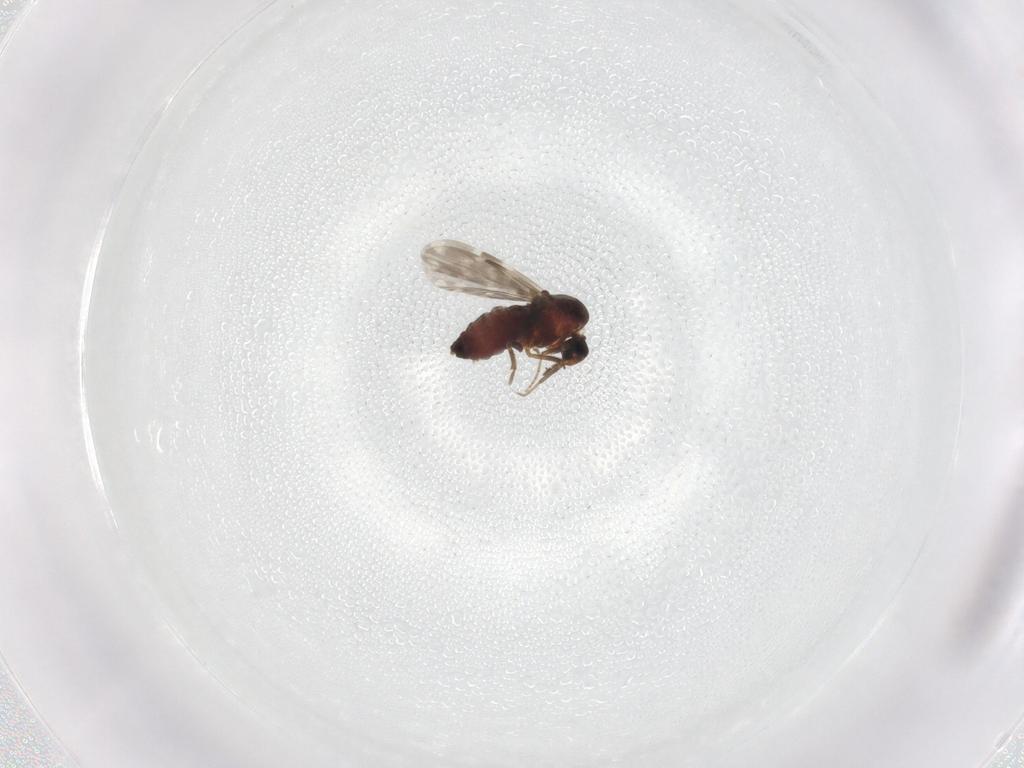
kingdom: Animalia
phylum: Arthropoda
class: Insecta
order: Diptera
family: Ceratopogonidae
